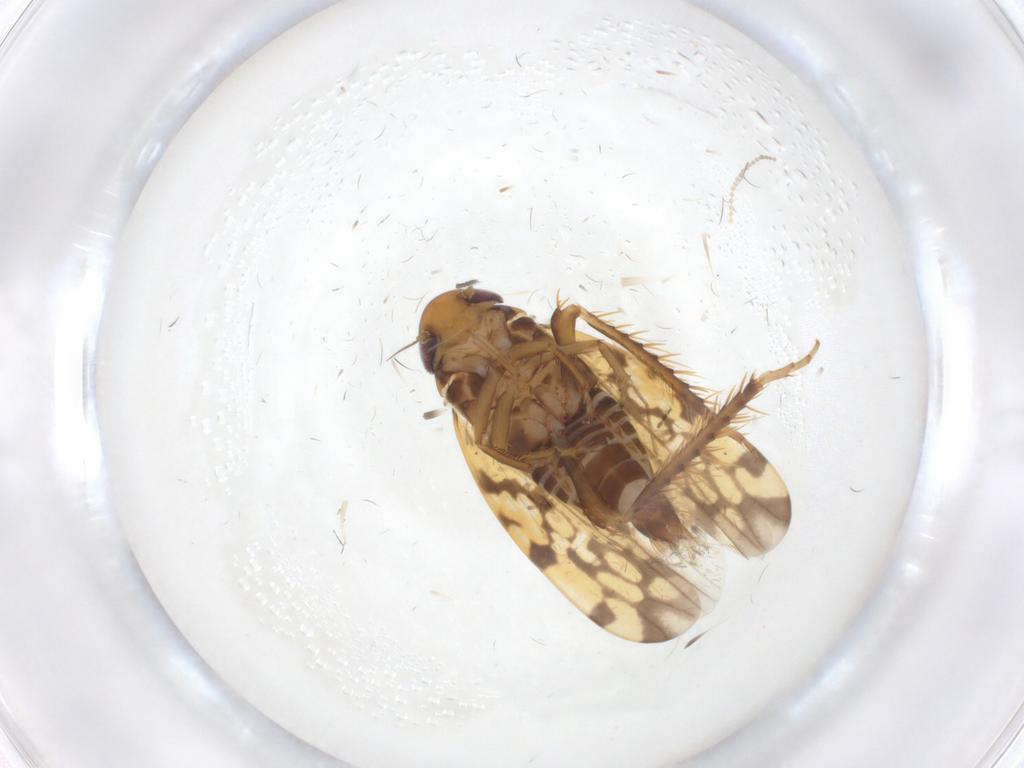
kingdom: Animalia
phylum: Arthropoda
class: Insecta
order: Hemiptera
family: Cicadellidae
